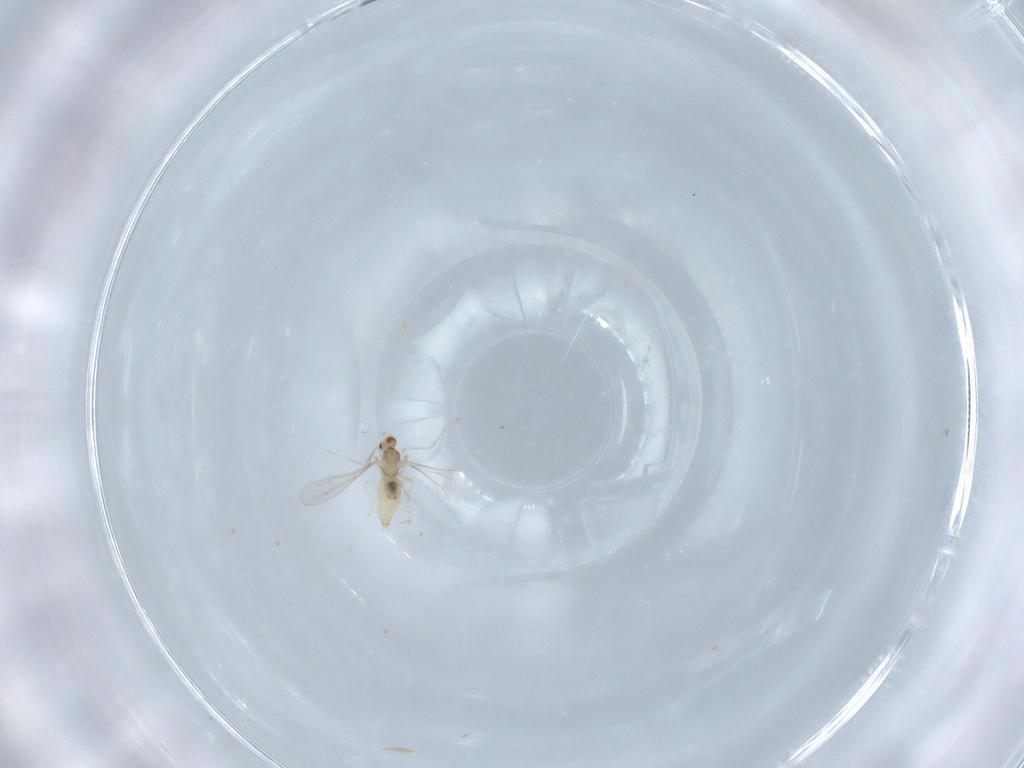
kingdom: Animalia
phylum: Arthropoda
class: Insecta
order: Diptera
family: Cecidomyiidae
